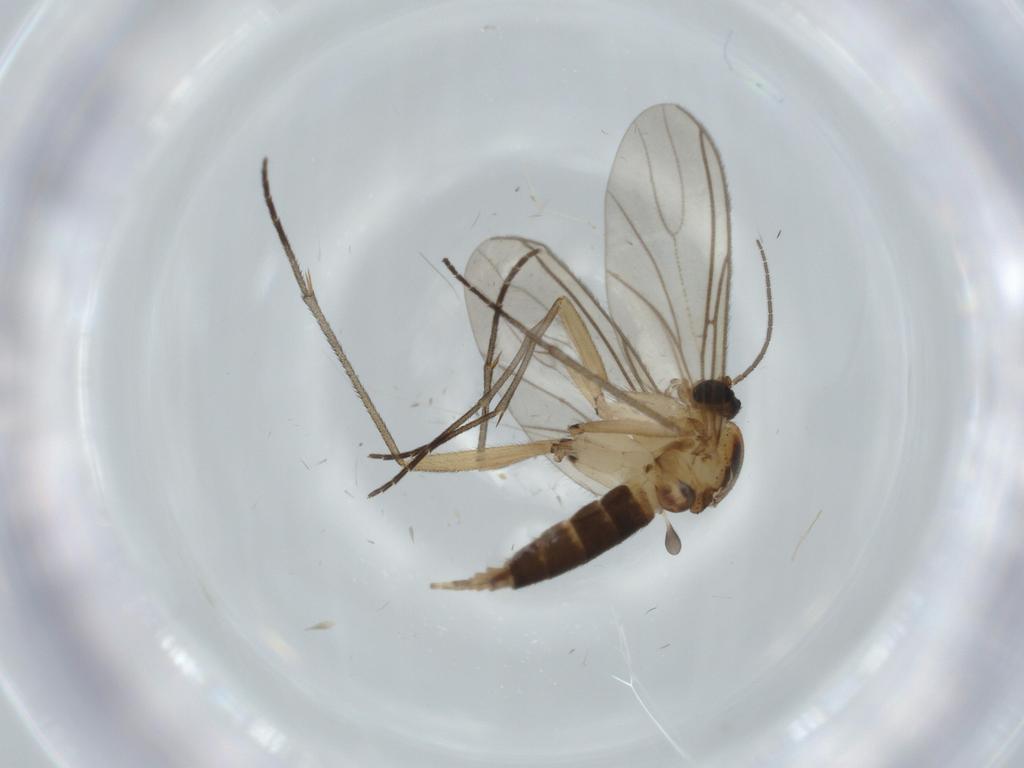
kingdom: Animalia
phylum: Arthropoda
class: Insecta
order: Diptera
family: Sciaridae
